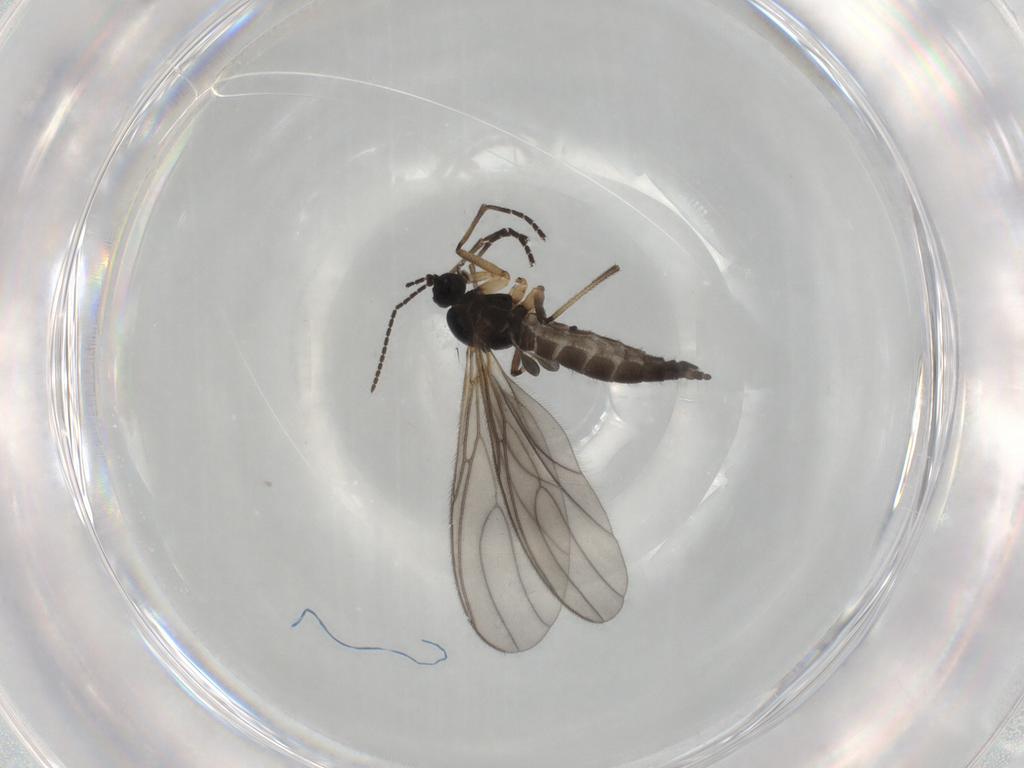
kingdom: Animalia
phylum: Arthropoda
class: Insecta
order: Diptera
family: Sciaridae
